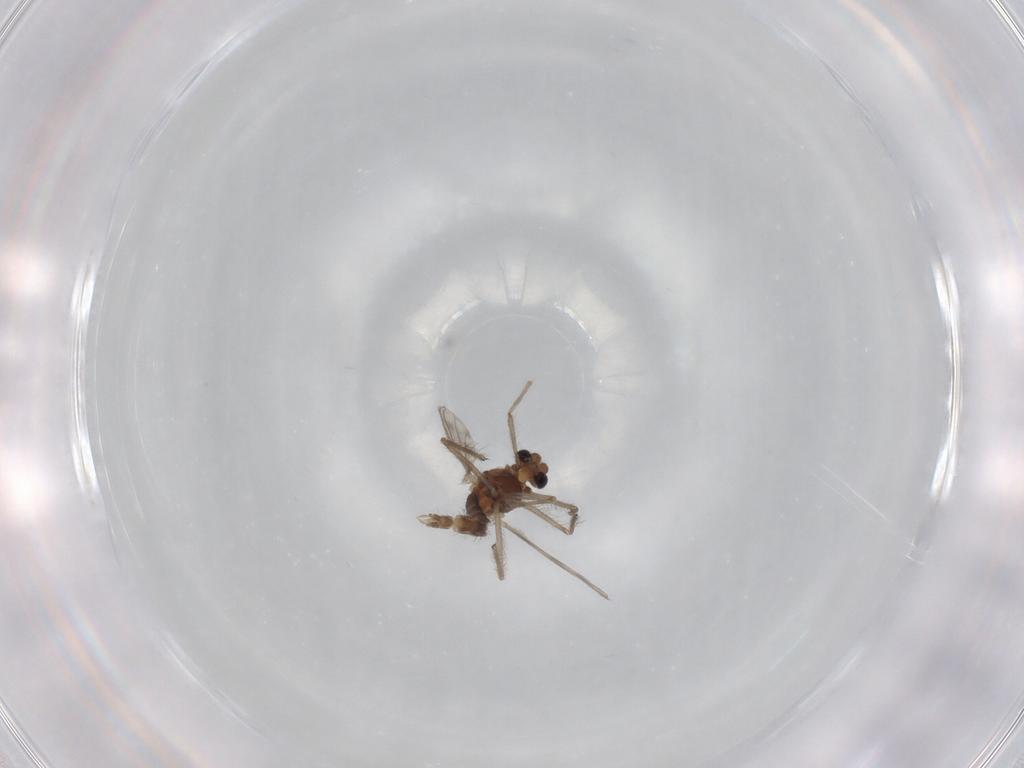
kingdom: Animalia
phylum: Arthropoda
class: Insecta
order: Diptera
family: Chironomidae
